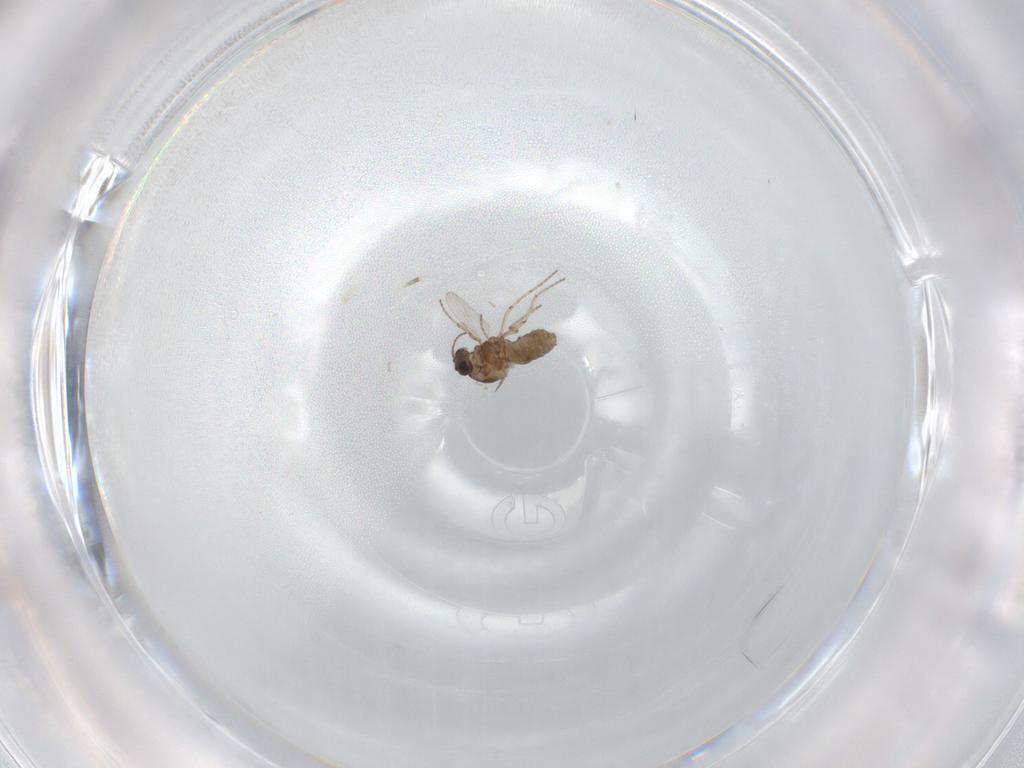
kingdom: Animalia
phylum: Arthropoda
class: Insecta
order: Diptera
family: Ceratopogonidae
